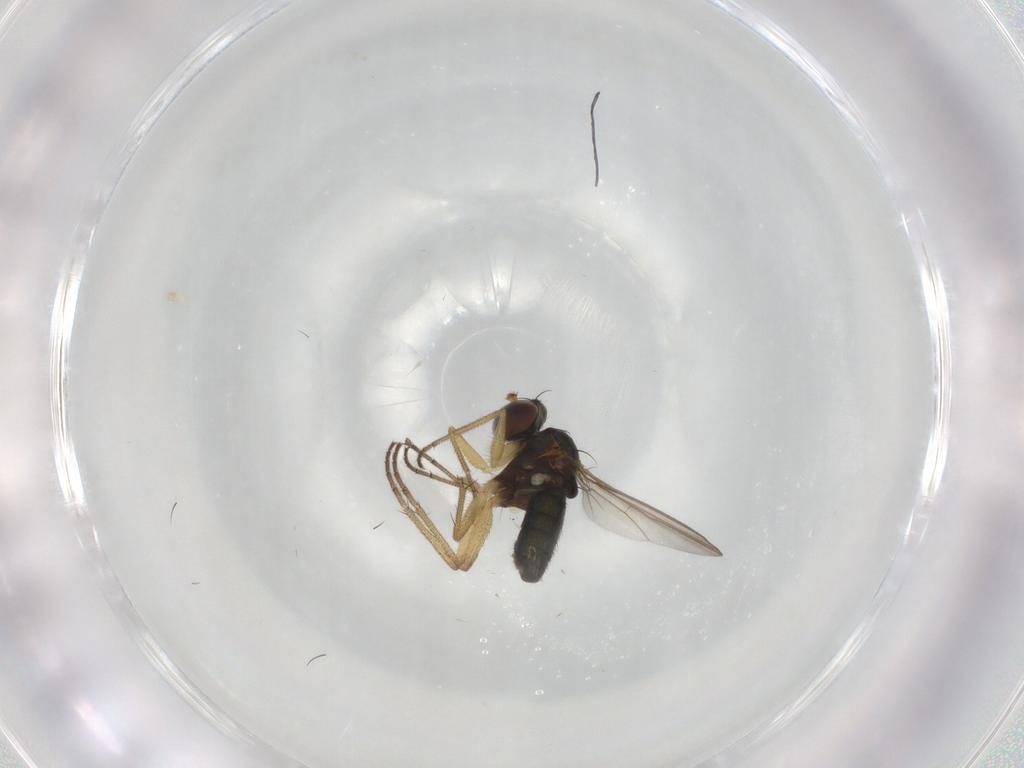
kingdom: Animalia
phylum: Arthropoda
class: Insecta
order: Diptera
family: Dolichopodidae
